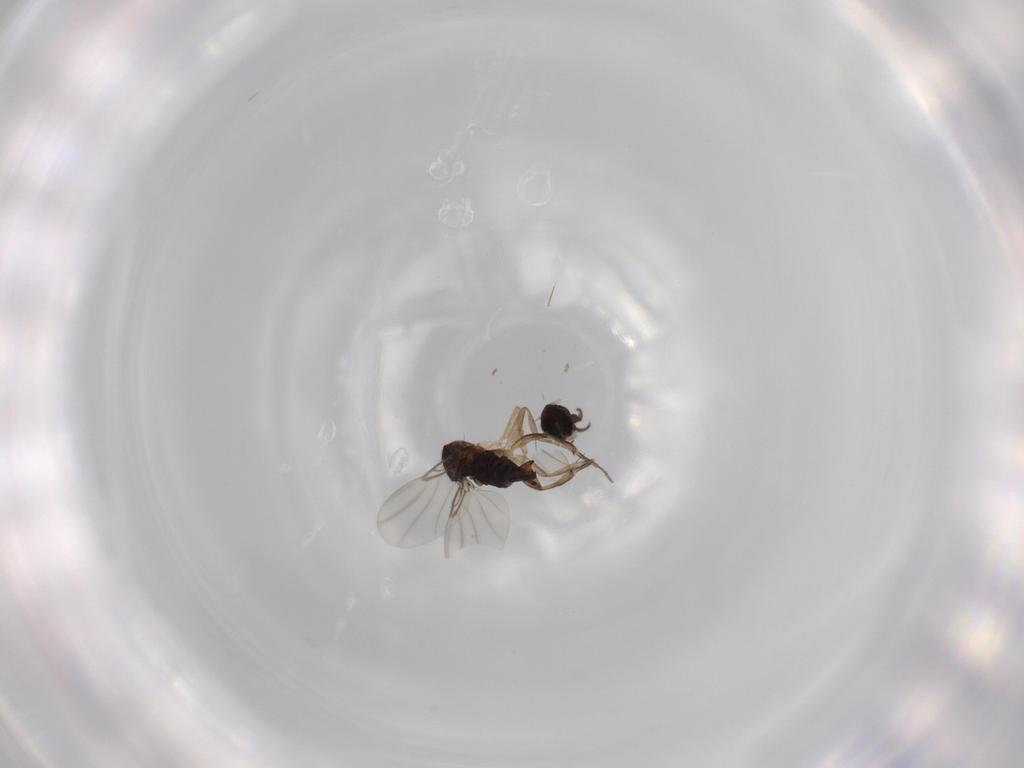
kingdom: Animalia
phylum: Arthropoda
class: Insecta
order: Diptera
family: Phoridae
